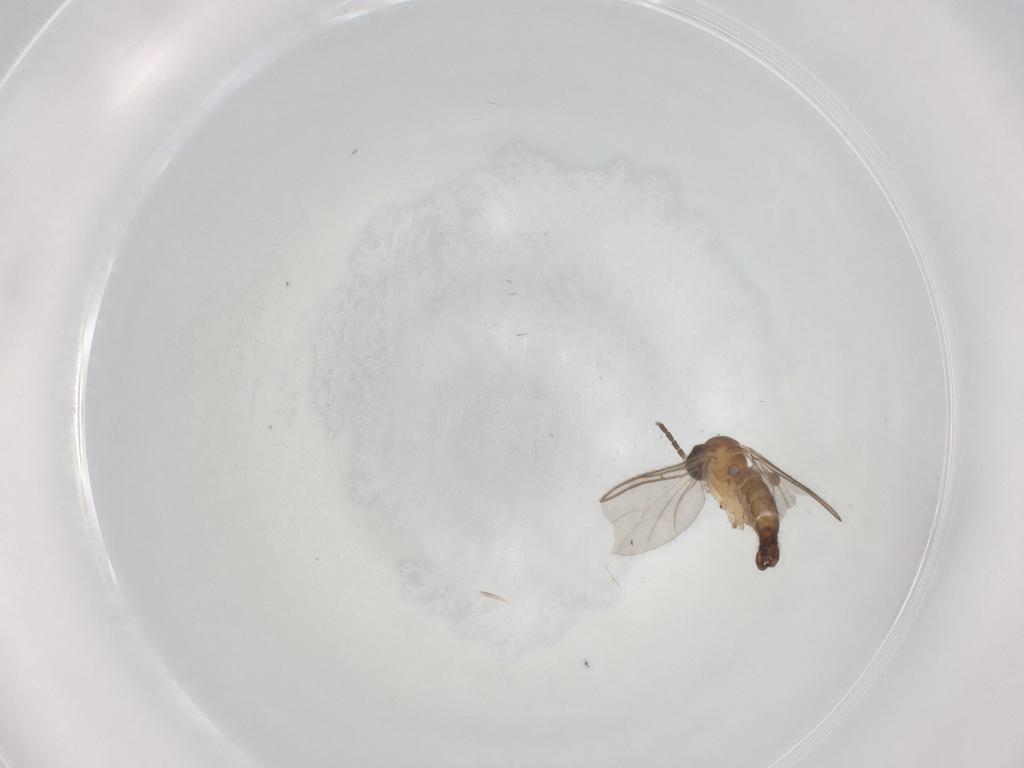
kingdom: Animalia
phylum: Arthropoda
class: Insecta
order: Diptera
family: Sciaridae
